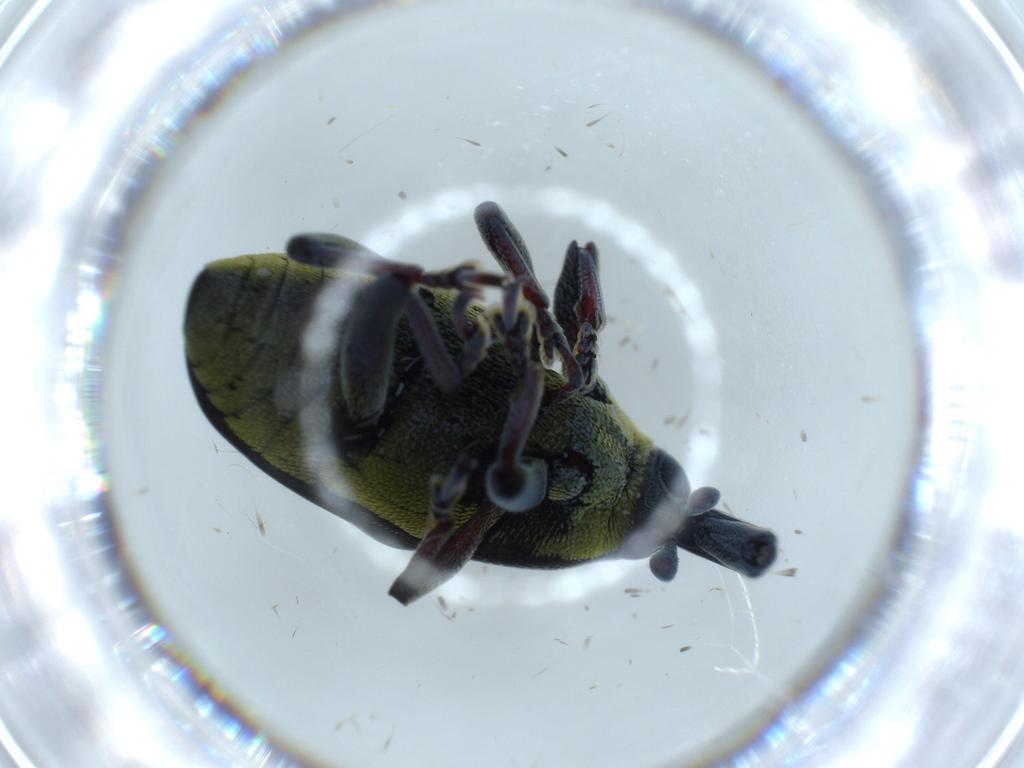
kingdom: Animalia
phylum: Arthropoda
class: Insecta
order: Coleoptera
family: Curculionidae
